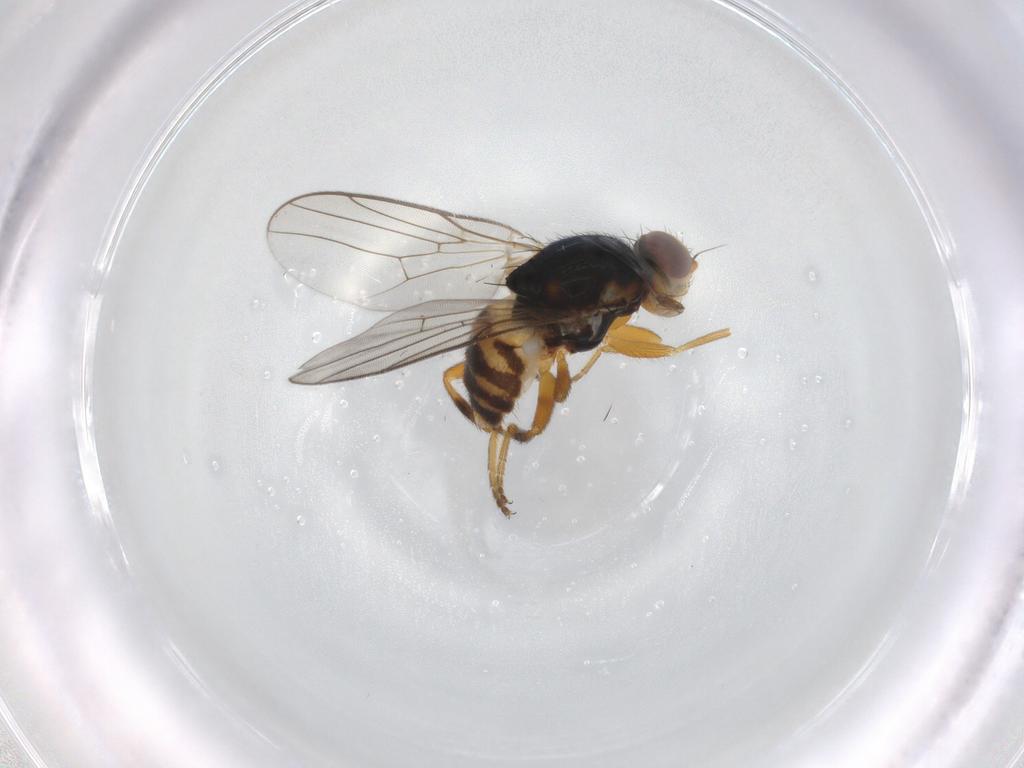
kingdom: Animalia
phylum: Arthropoda
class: Insecta
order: Diptera
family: Chloropidae
